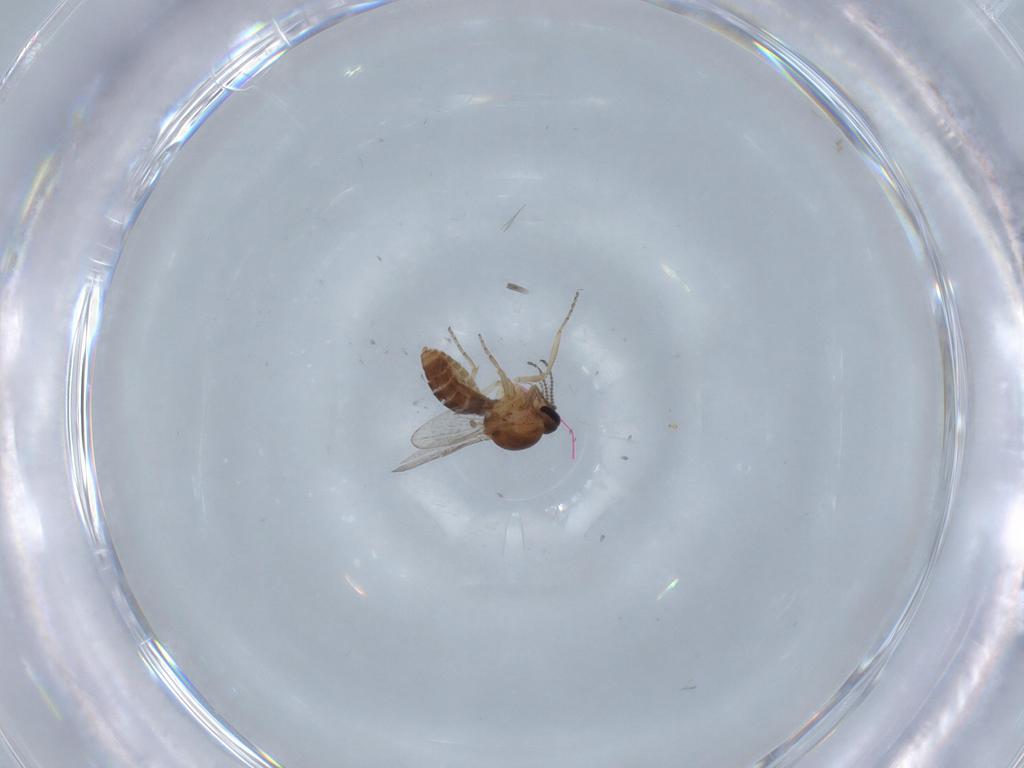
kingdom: Animalia
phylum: Arthropoda
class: Insecta
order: Diptera
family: Ceratopogonidae
